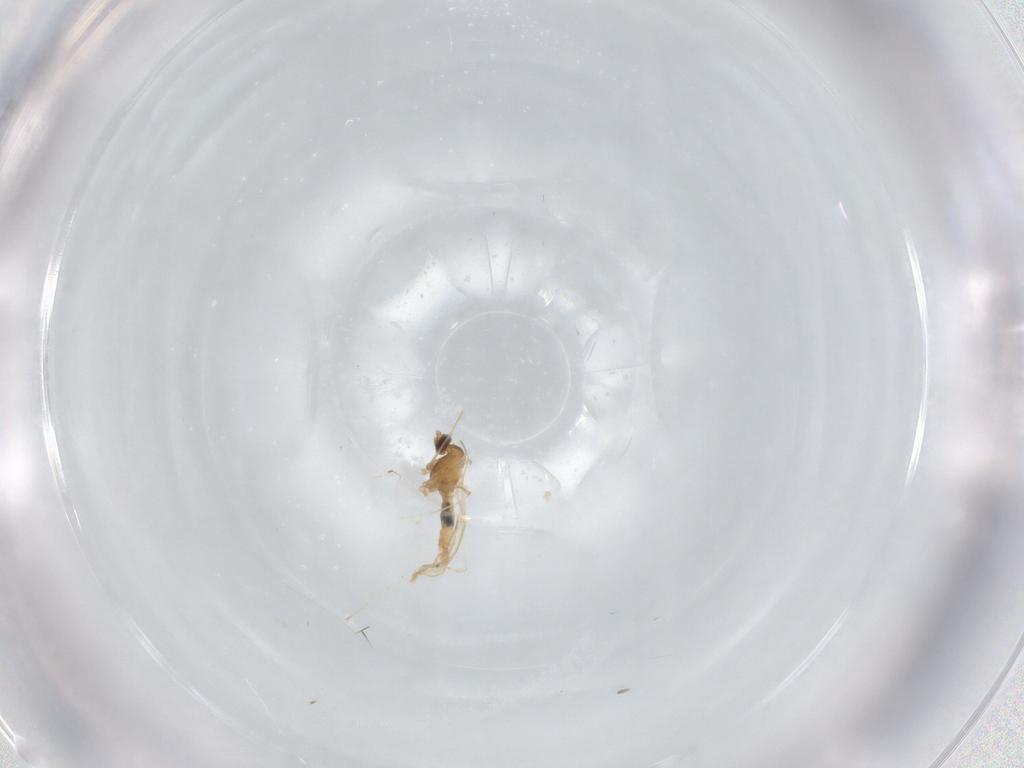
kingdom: Animalia
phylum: Arthropoda
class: Insecta
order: Diptera
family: Cecidomyiidae
